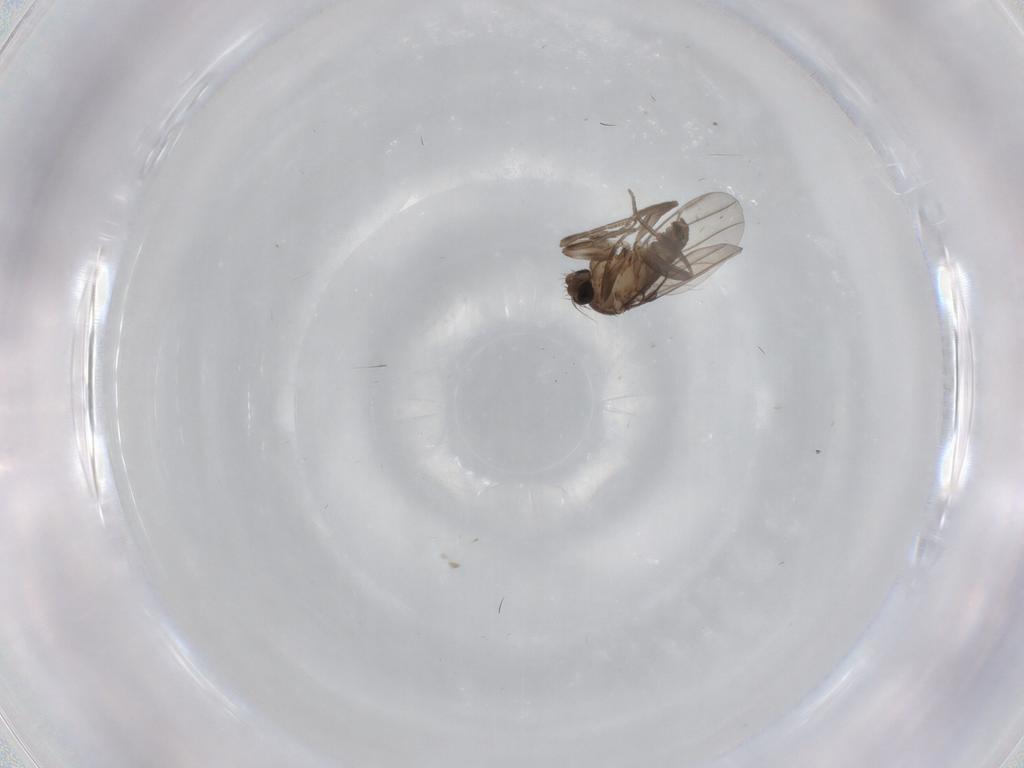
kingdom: Animalia
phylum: Arthropoda
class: Insecta
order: Diptera
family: Phoridae
